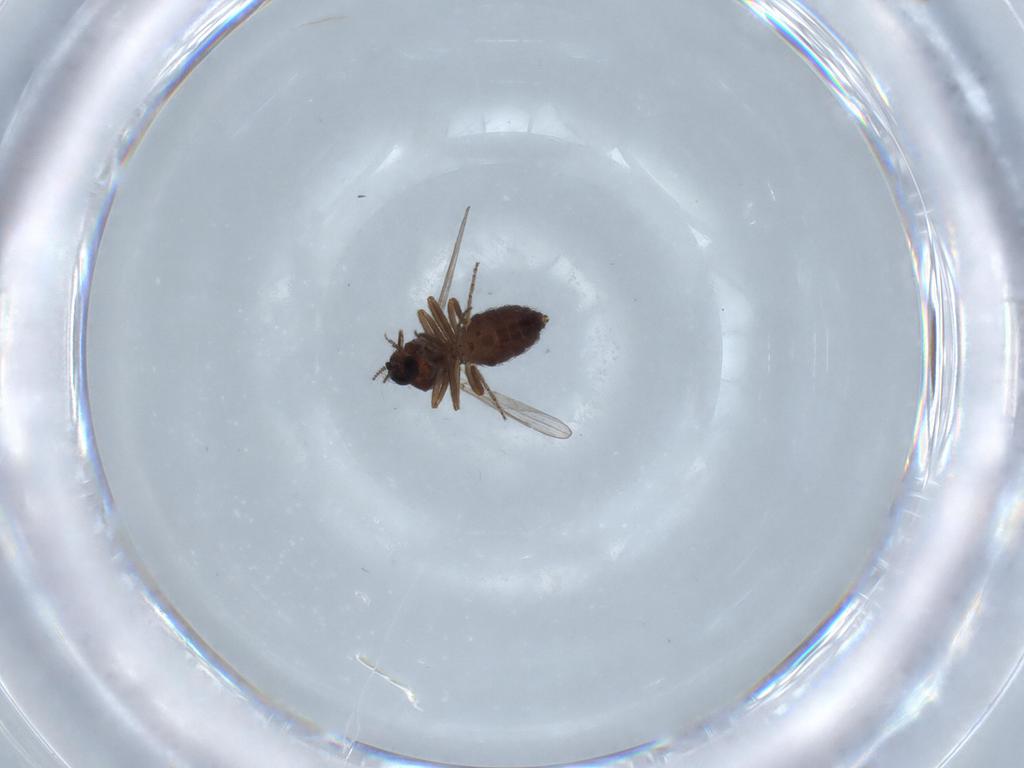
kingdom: Animalia
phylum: Arthropoda
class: Insecta
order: Diptera
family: Ceratopogonidae
